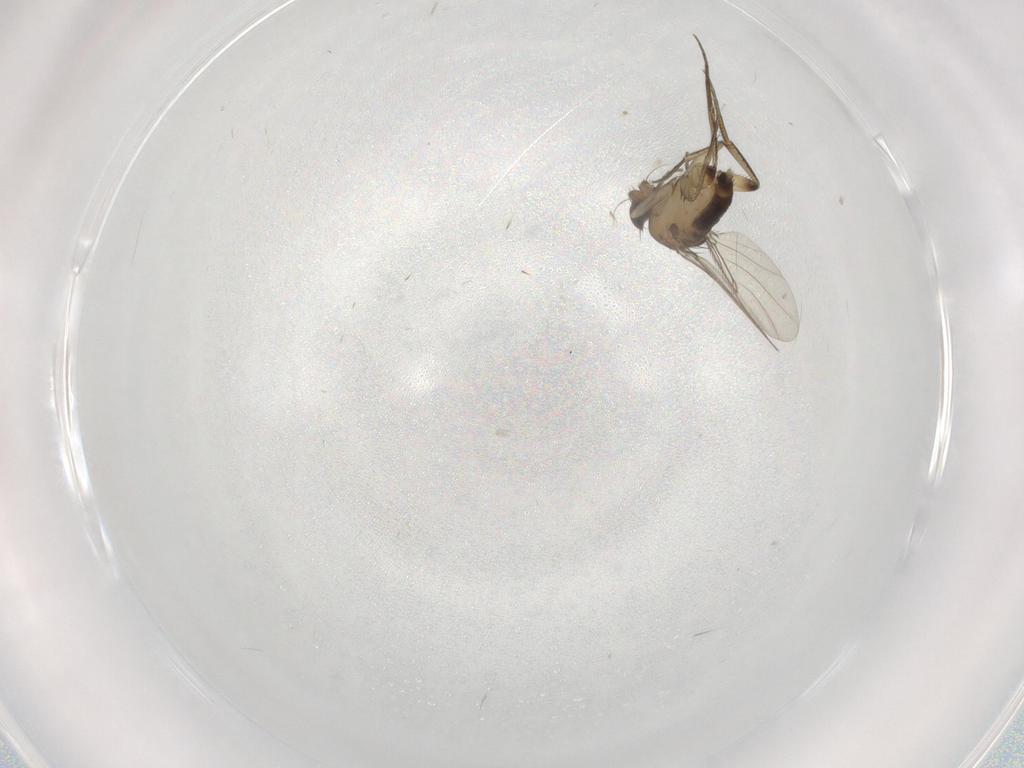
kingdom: Animalia
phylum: Arthropoda
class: Insecta
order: Diptera
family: Phoridae
